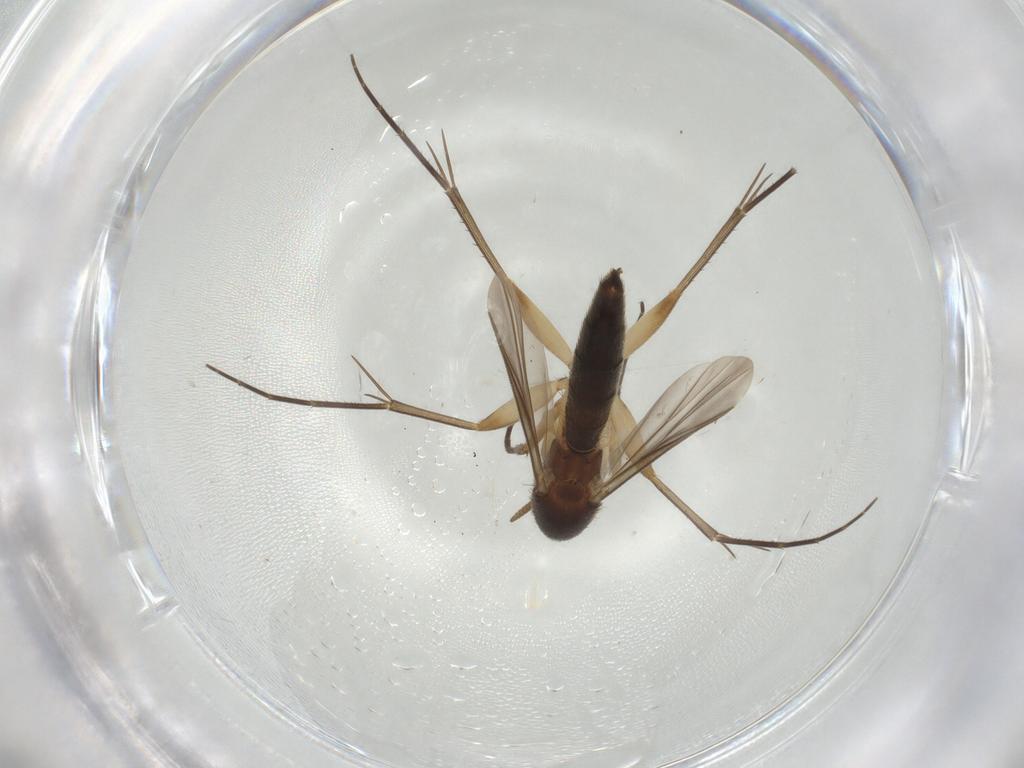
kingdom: Animalia
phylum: Arthropoda
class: Insecta
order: Diptera
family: Mycetophilidae
